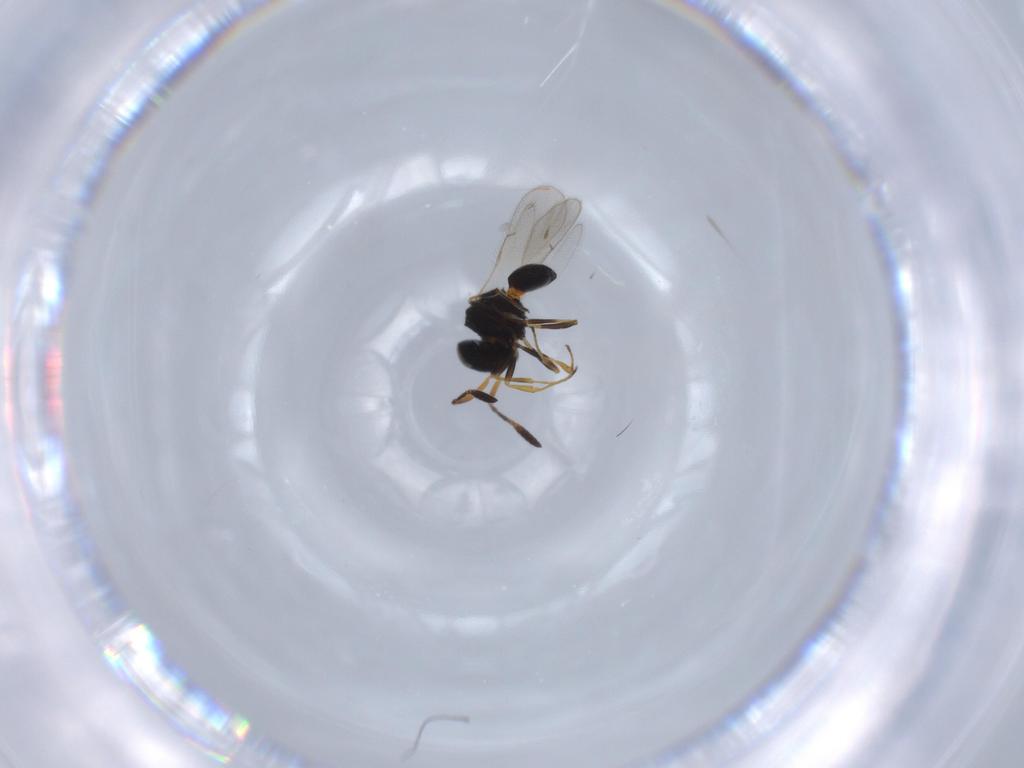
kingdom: Animalia
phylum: Arthropoda
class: Insecta
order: Hymenoptera
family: Scelionidae
